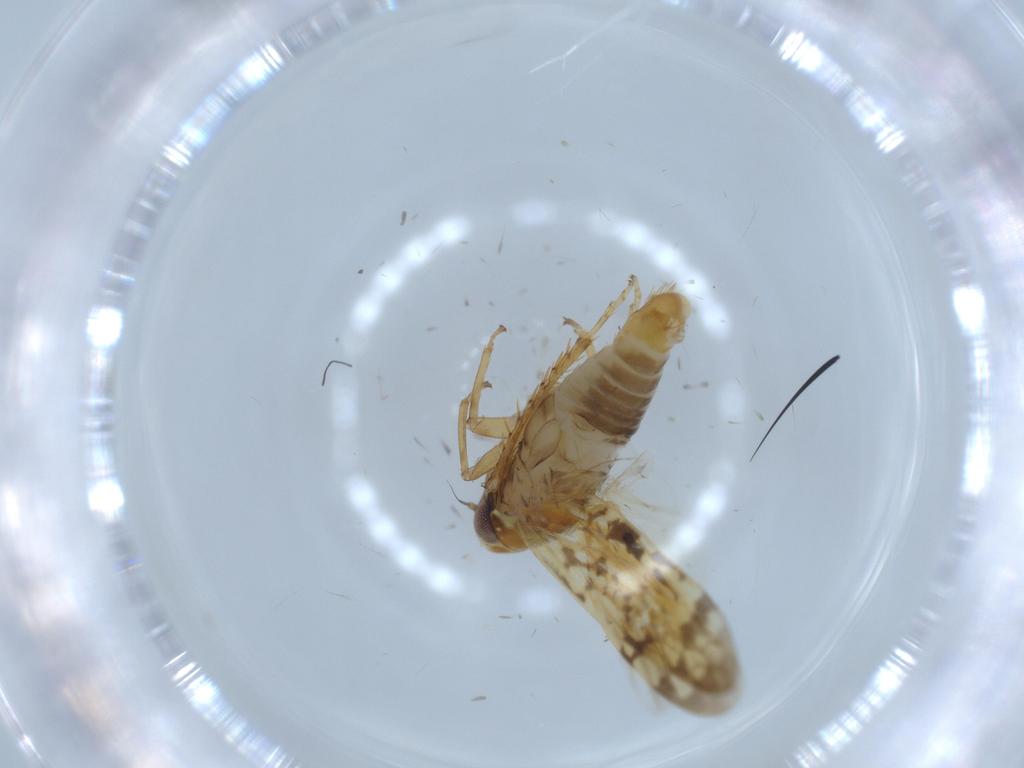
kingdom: Animalia
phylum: Arthropoda
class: Insecta
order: Hemiptera
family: Cicadellidae
